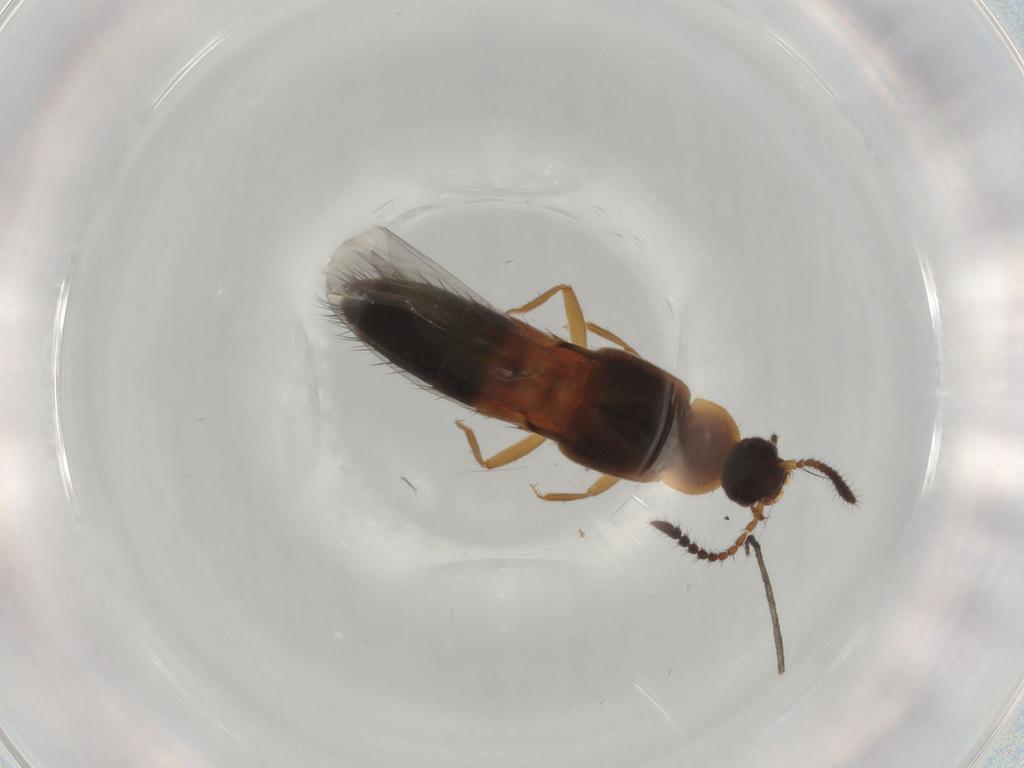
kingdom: Animalia
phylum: Arthropoda
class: Insecta
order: Coleoptera
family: Staphylinidae
